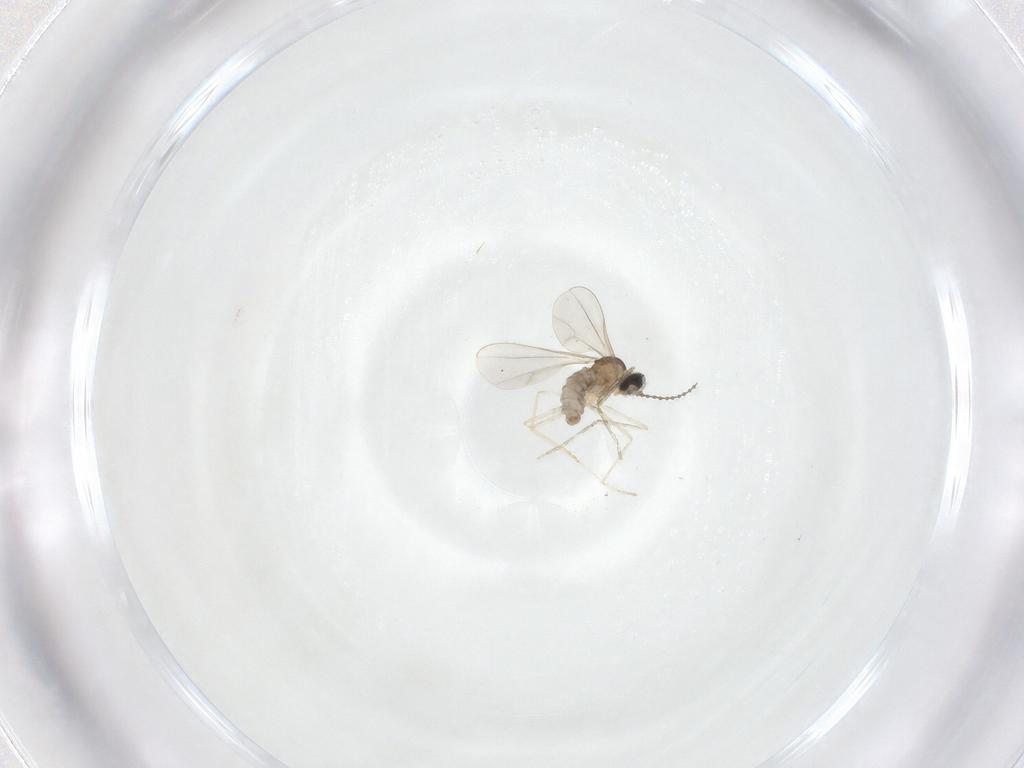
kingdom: Animalia
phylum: Arthropoda
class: Insecta
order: Diptera
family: Cecidomyiidae
